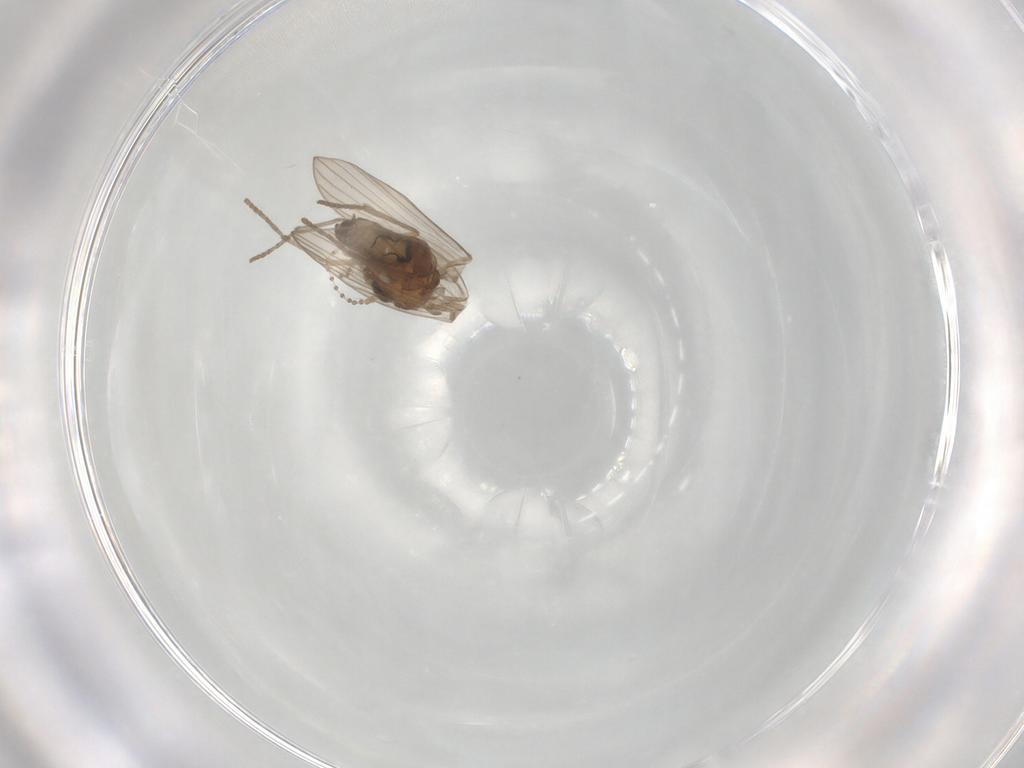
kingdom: Animalia
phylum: Arthropoda
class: Insecta
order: Diptera
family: Psychodidae
